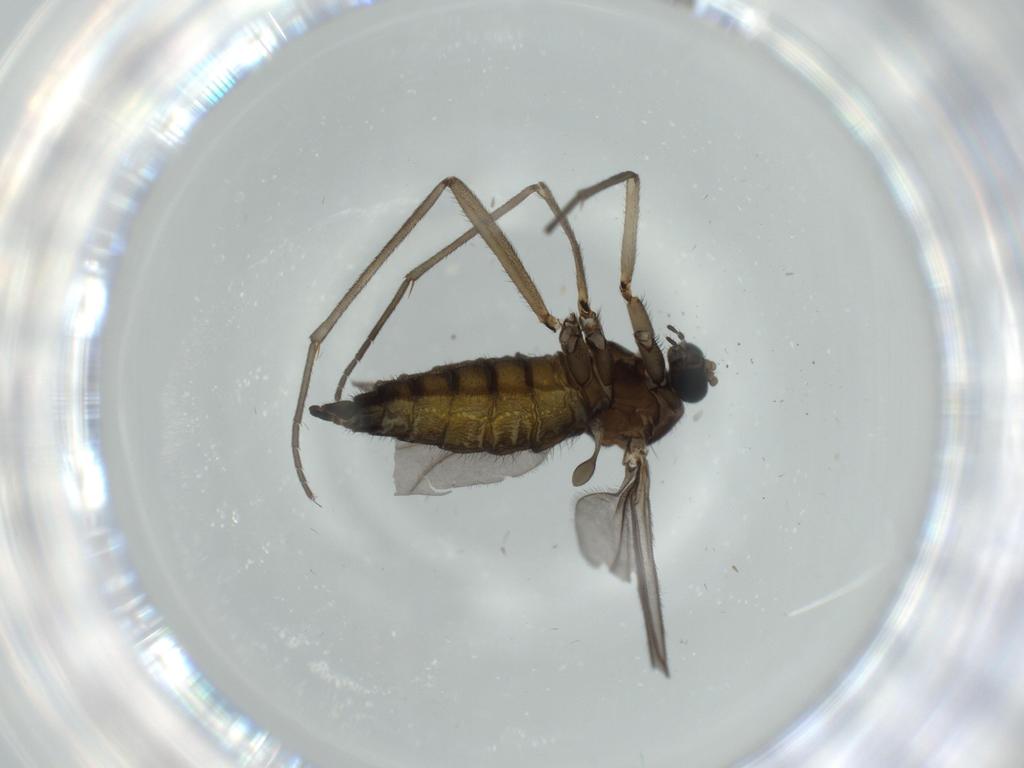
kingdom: Animalia
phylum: Arthropoda
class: Insecta
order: Diptera
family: Sciaridae
